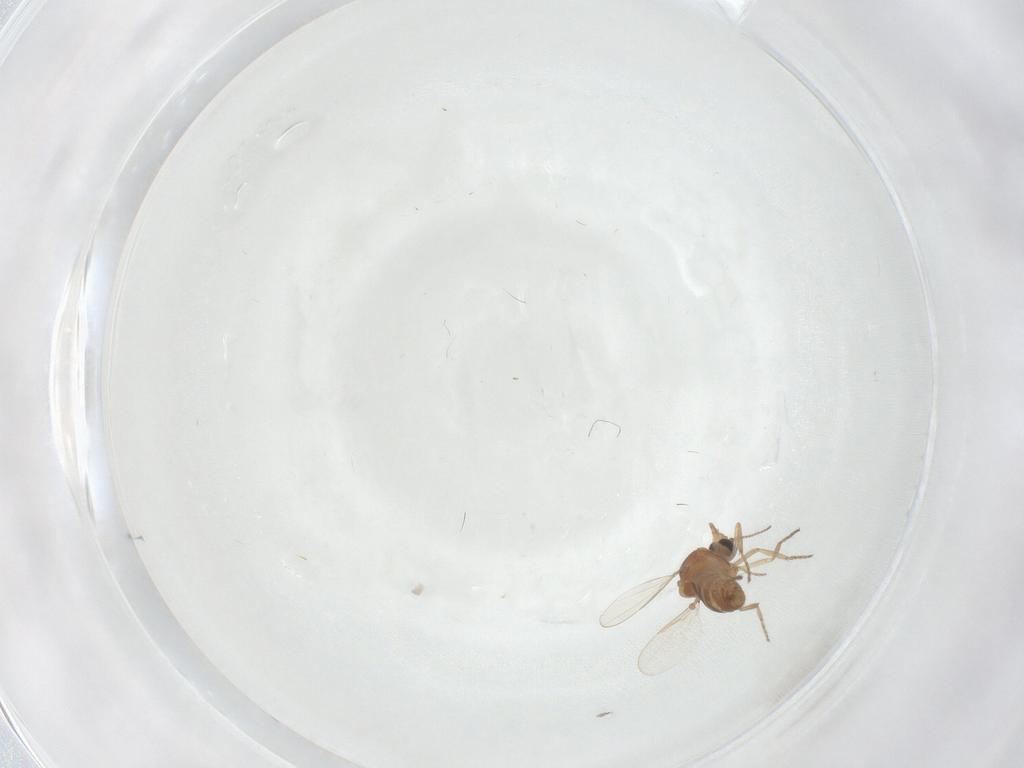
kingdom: Animalia
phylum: Arthropoda
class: Insecta
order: Diptera
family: Ceratopogonidae
